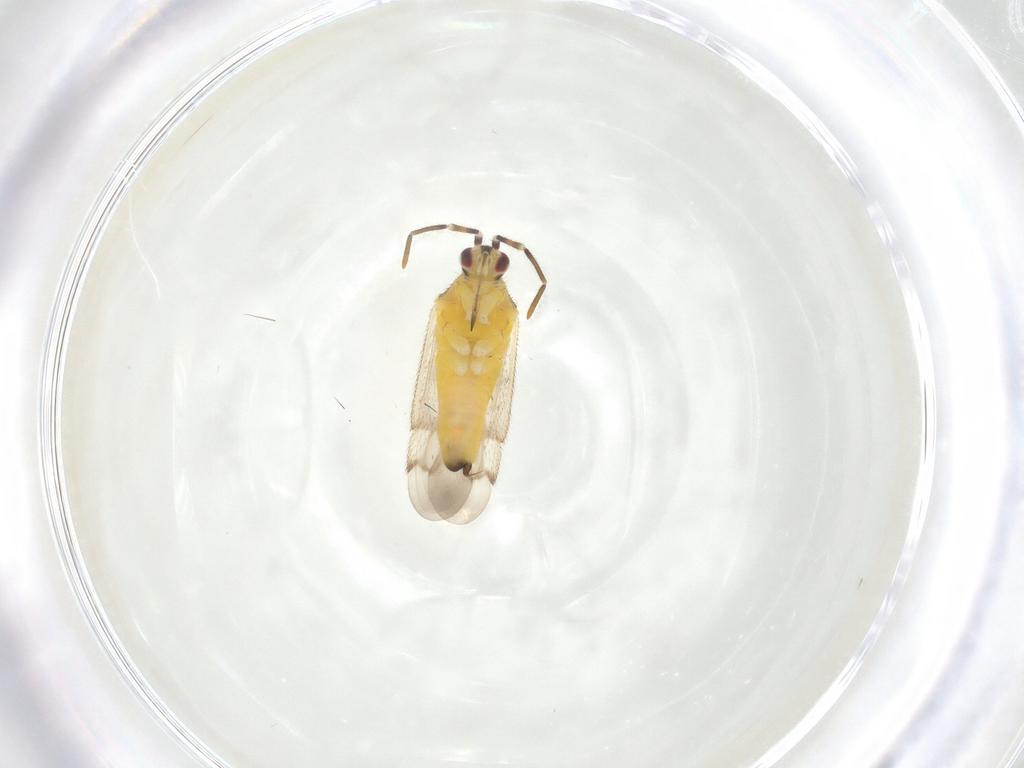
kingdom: Animalia
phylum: Arthropoda
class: Insecta
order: Hemiptera
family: Miridae
